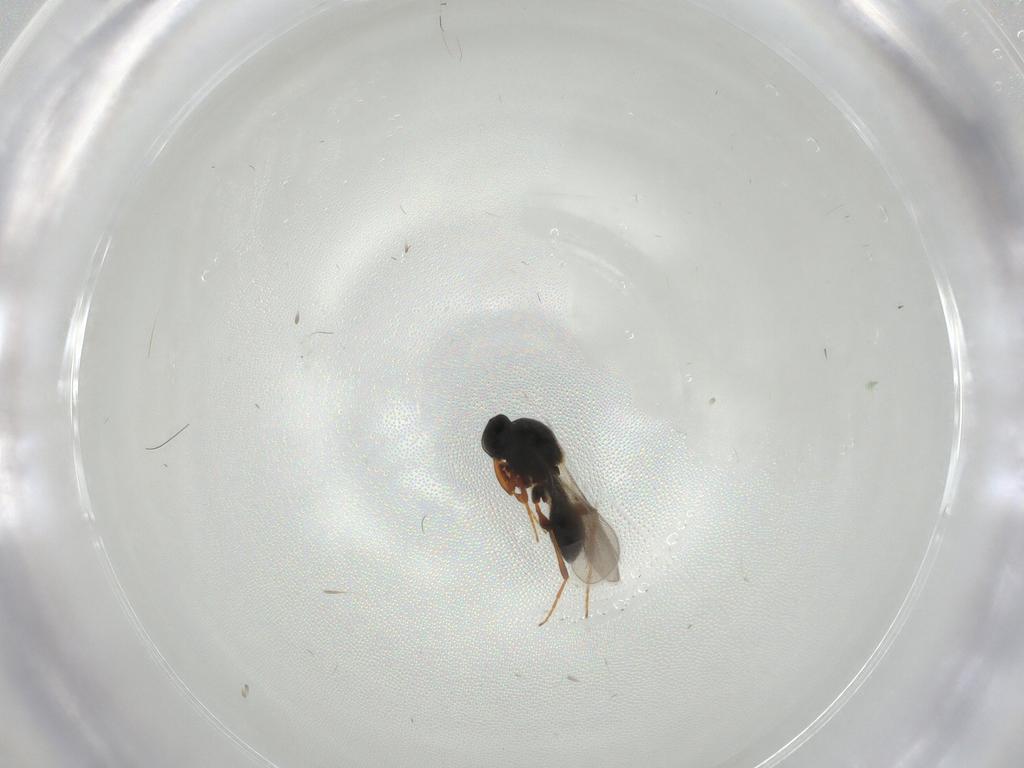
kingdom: Animalia
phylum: Arthropoda
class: Insecta
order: Hymenoptera
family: Platygastridae
